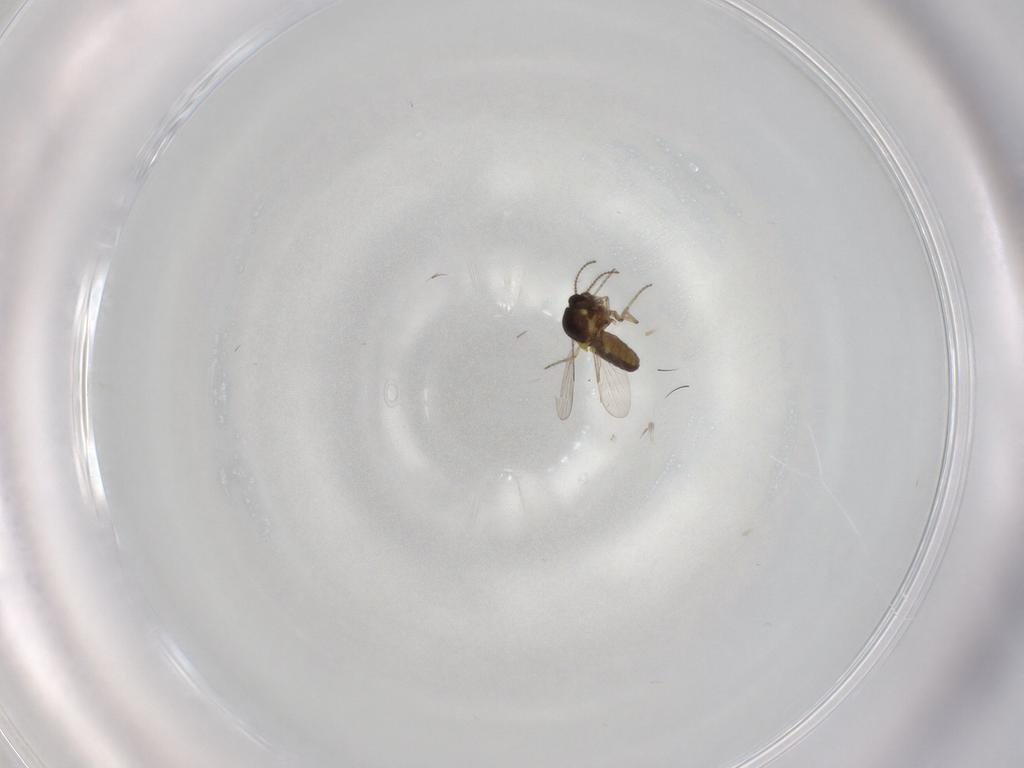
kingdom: Animalia
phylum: Arthropoda
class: Insecta
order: Diptera
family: Ceratopogonidae
